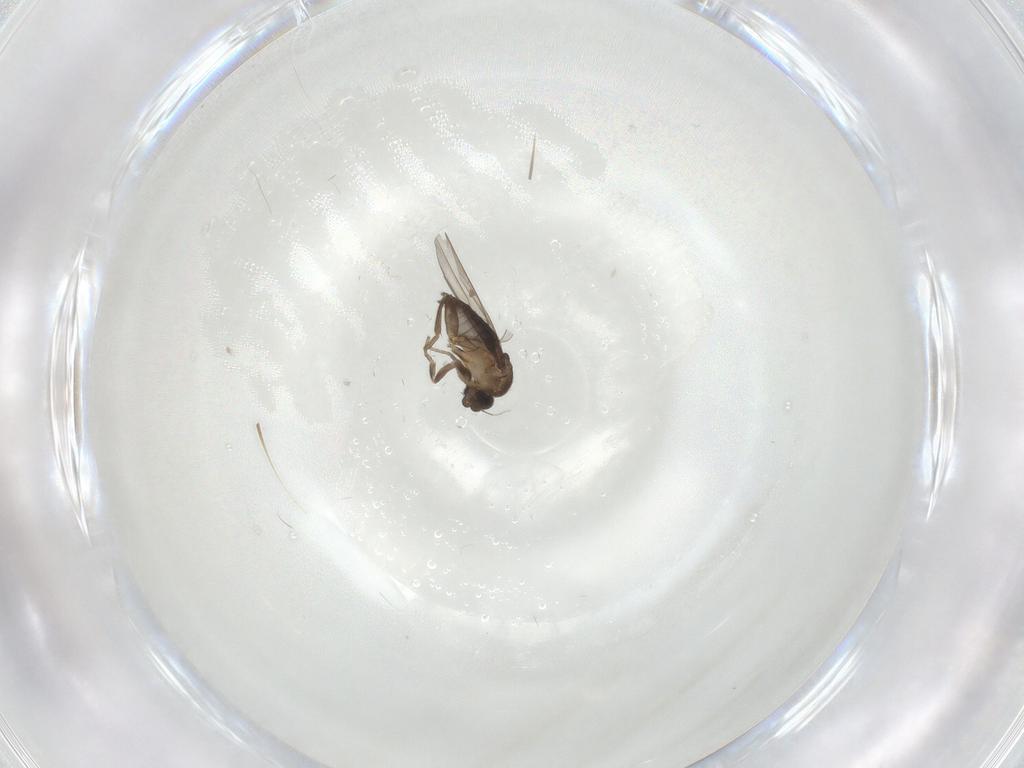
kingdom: Animalia
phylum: Arthropoda
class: Insecta
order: Diptera
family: Phoridae
